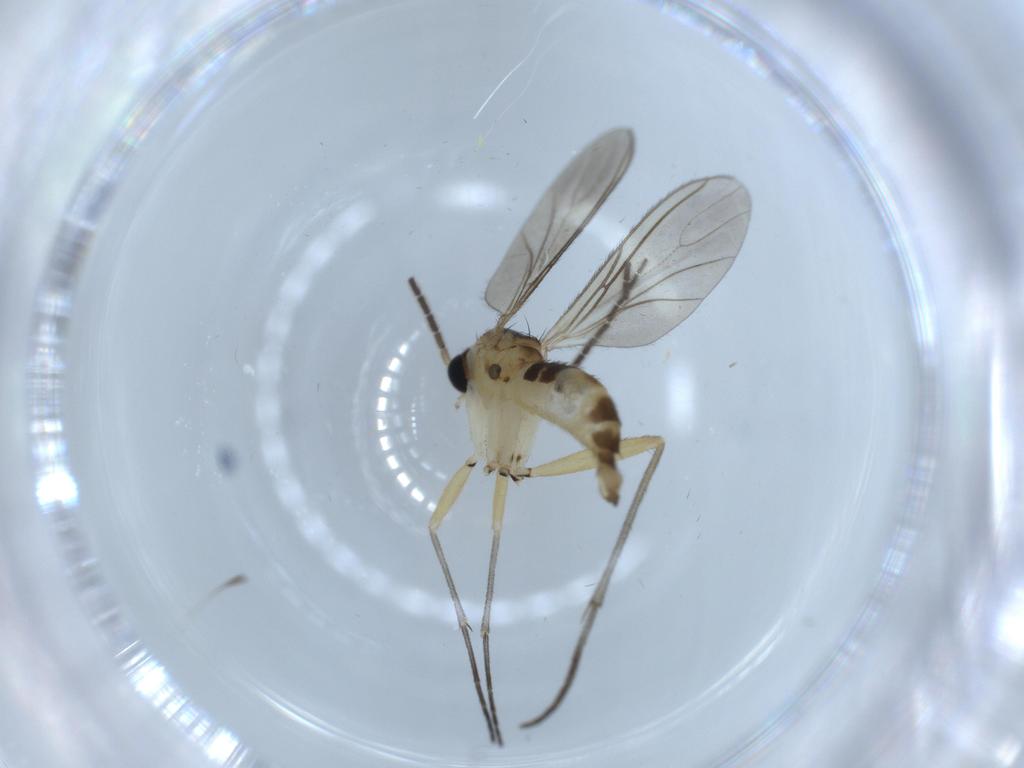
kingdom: Animalia
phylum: Arthropoda
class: Insecta
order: Diptera
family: Sciaridae
